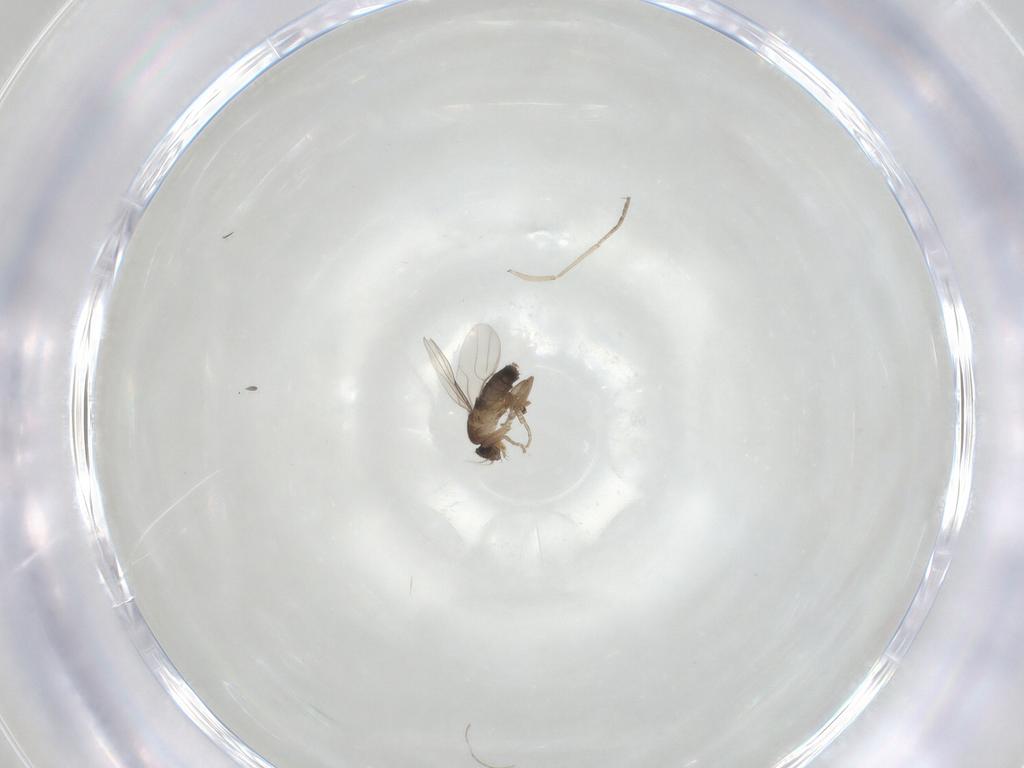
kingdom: Animalia
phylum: Arthropoda
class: Insecta
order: Diptera
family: Psychodidae
